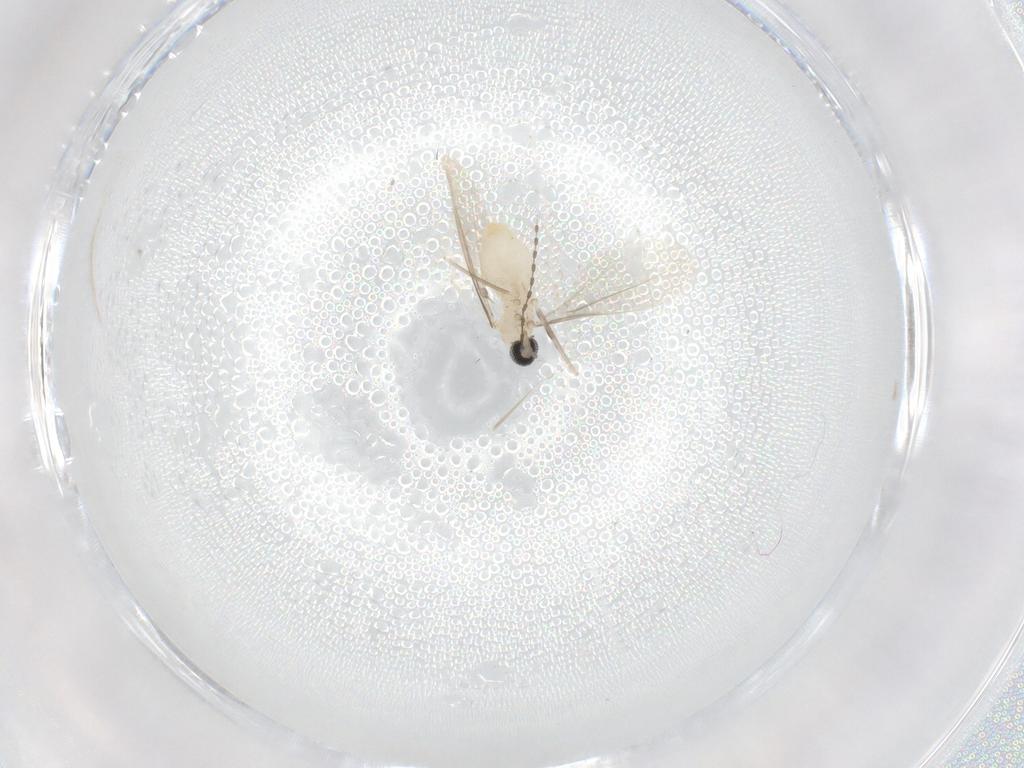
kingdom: Animalia
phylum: Arthropoda
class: Insecta
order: Diptera
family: Cecidomyiidae
